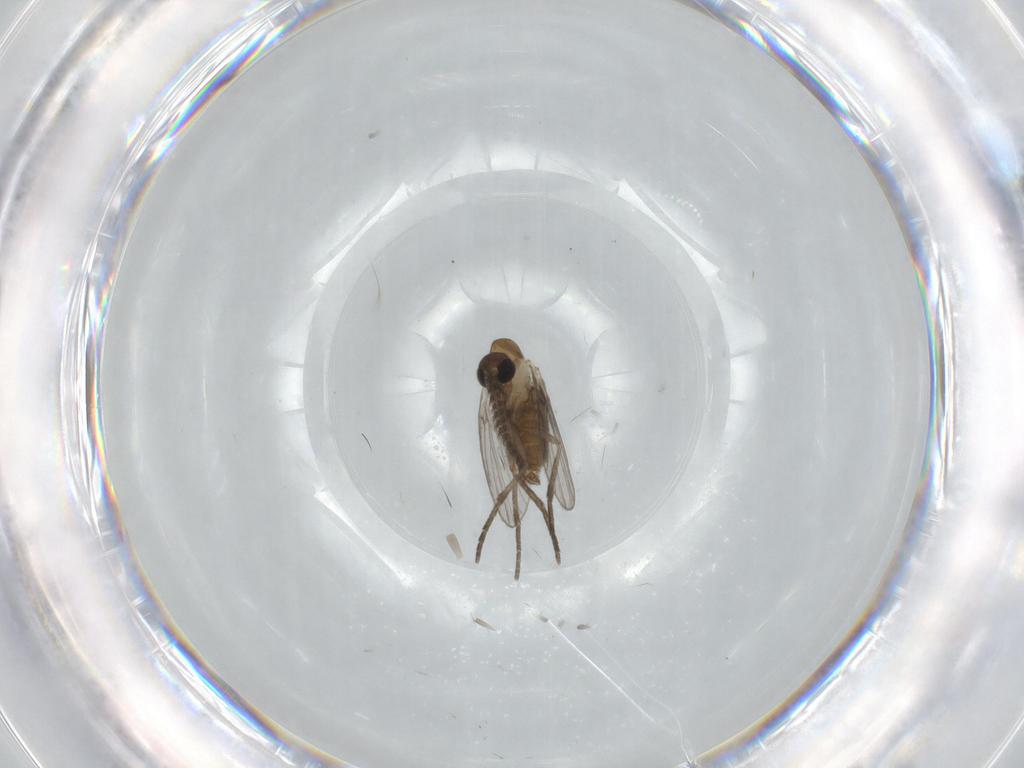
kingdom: Animalia
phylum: Arthropoda
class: Insecta
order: Diptera
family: Psychodidae
